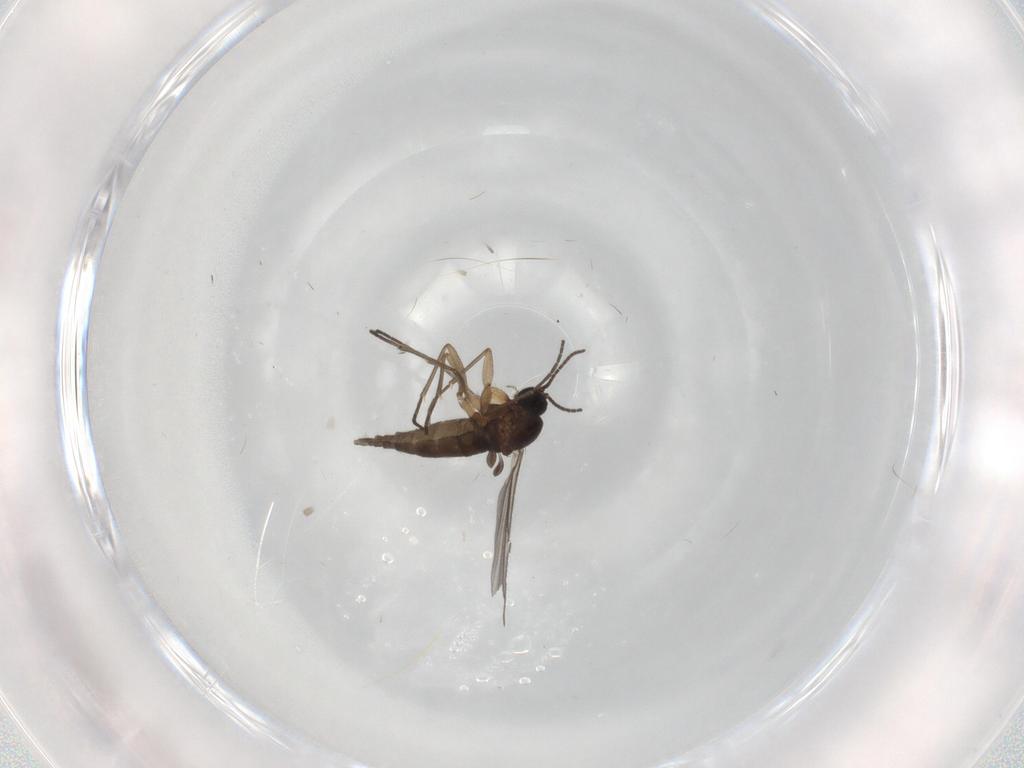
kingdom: Animalia
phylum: Arthropoda
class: Insecta
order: Diptera
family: Cecidomyiidae
